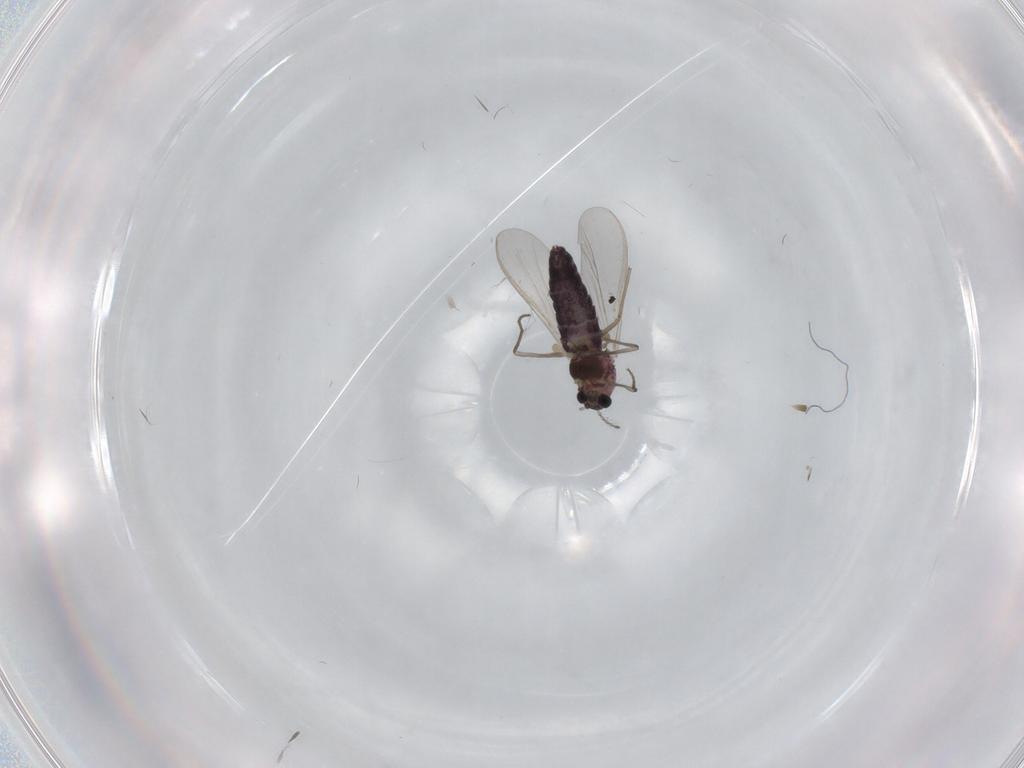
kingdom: Animalia
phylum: Arthropoda
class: Insecta
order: Diptera
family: Chironomidae
